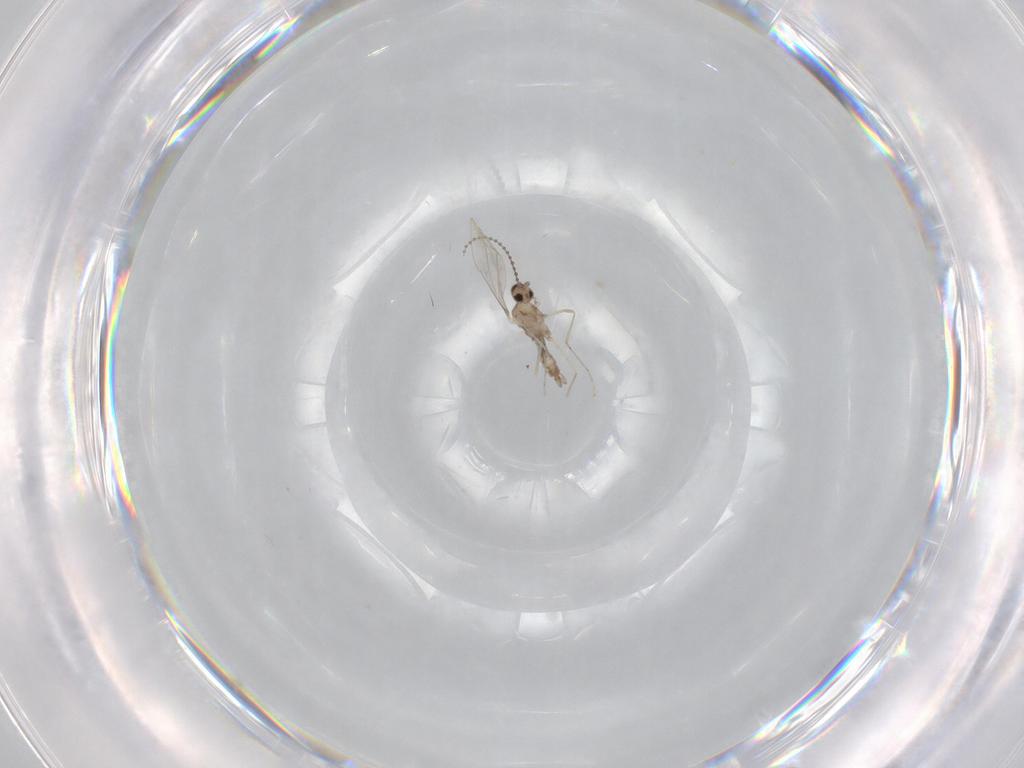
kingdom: Animalia
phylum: Arthropoda
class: Insecta
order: Diptera
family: Cecidomyiidae
